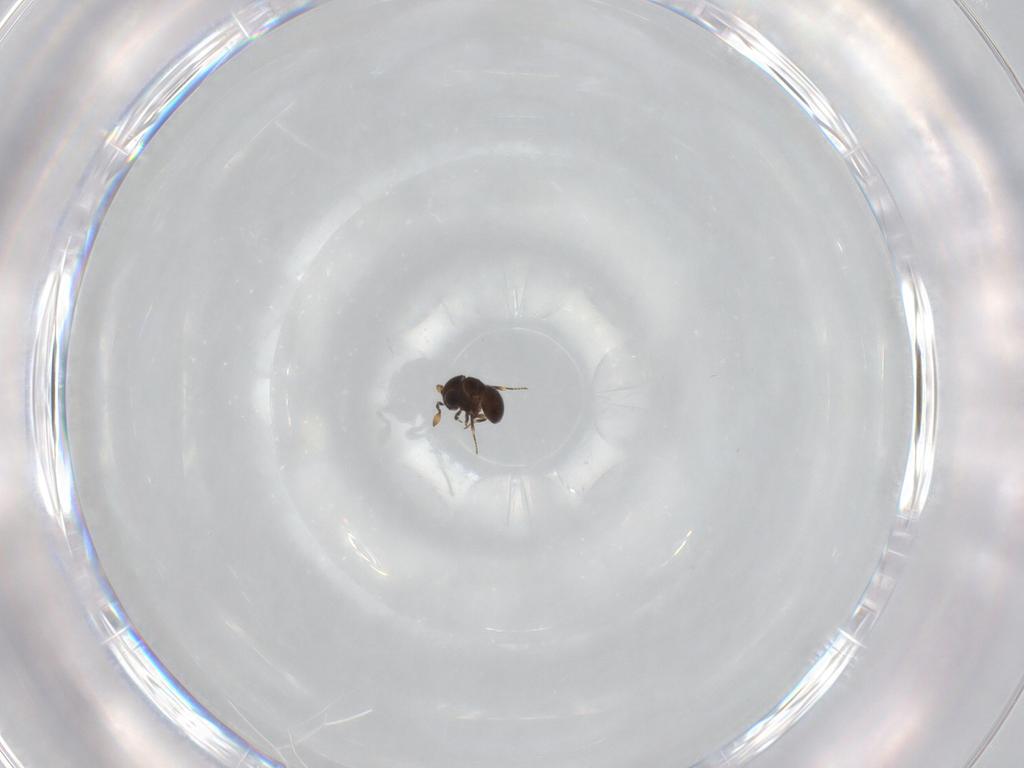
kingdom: Animalia
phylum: Arthropoda
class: Insecta
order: Hymenoptera
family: Scelionidae
